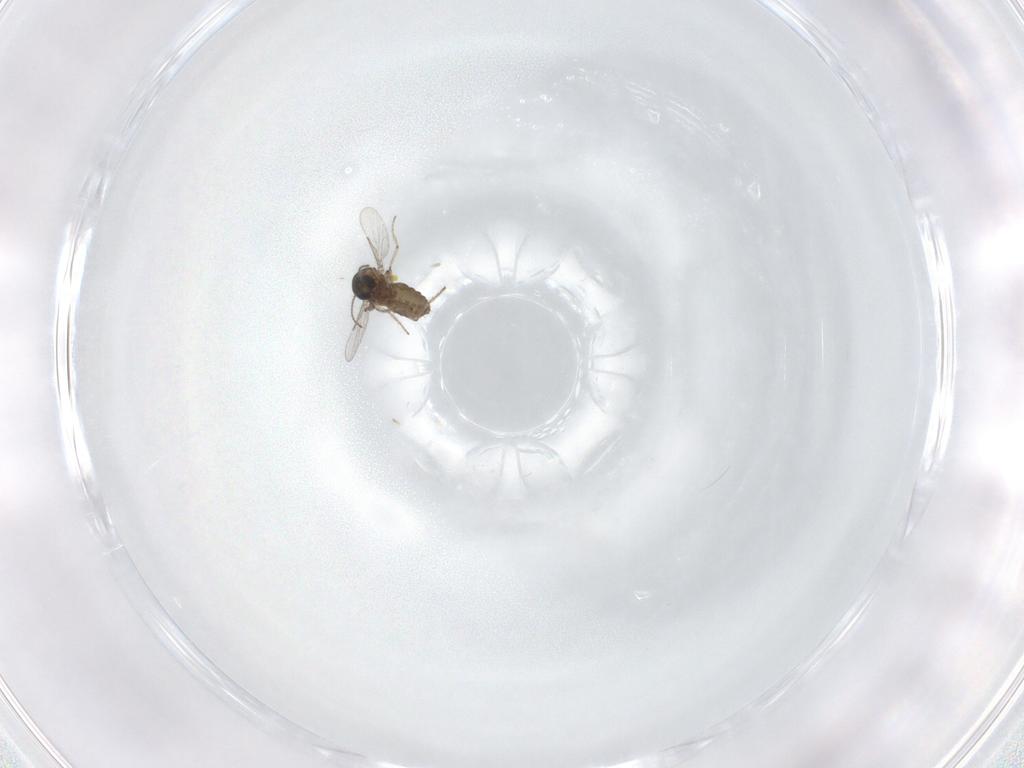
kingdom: Animalia
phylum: Arthropoda
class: Insecta
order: Diptera
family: Ceratopogonidae
